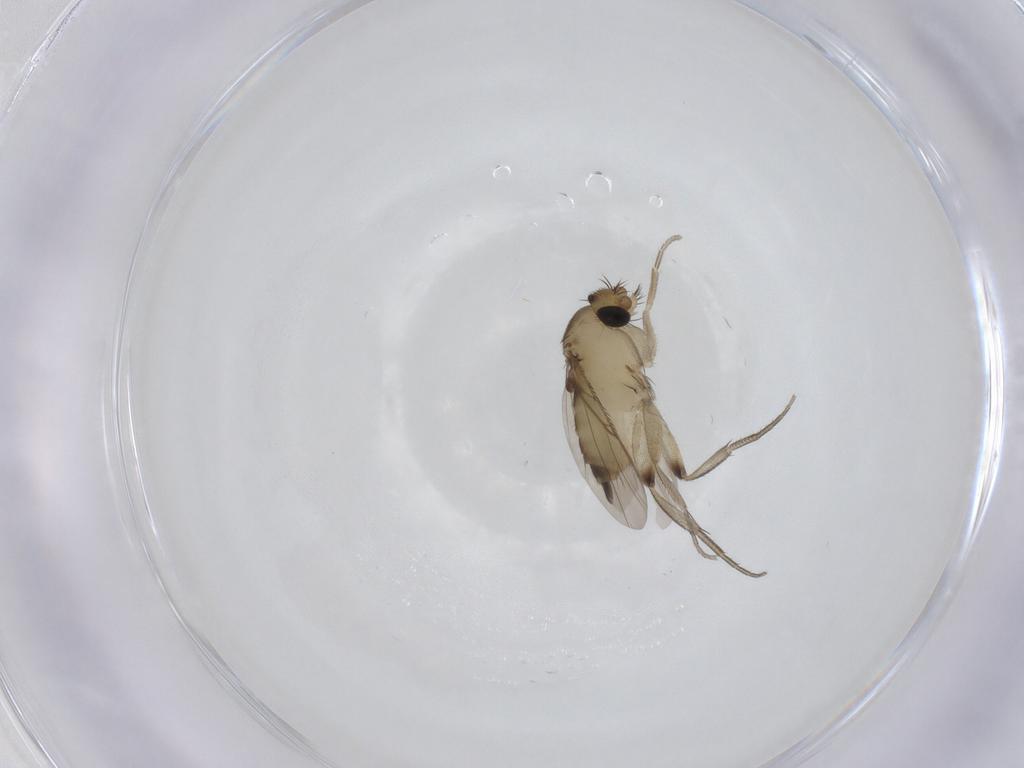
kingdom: Animalia
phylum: Arthropoda
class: Insecta
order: Diptera
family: Phoridae
